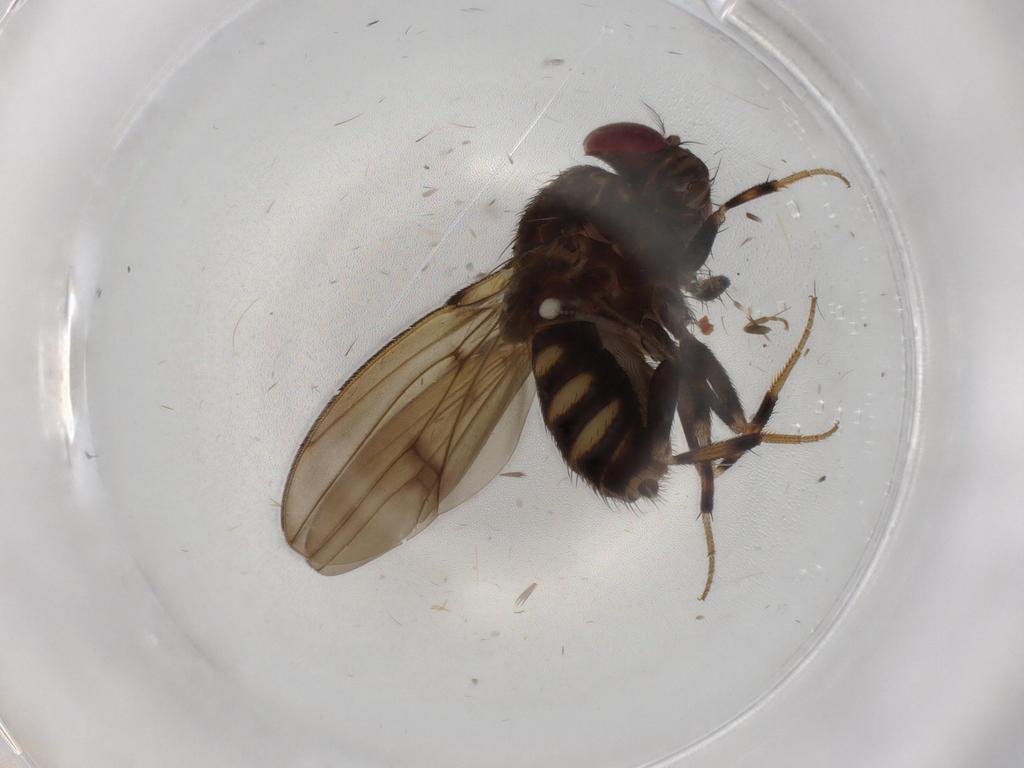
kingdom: Animalia
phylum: Arthropoda
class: Insecta
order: Diptera
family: Drosophilidae
